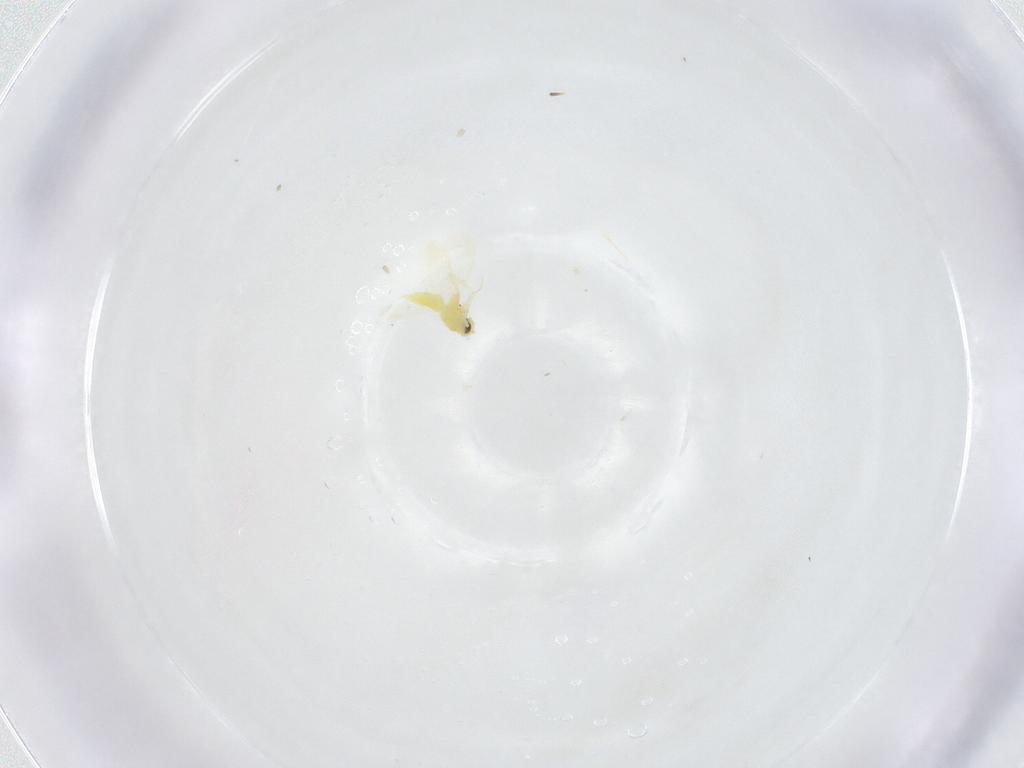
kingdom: Animalia
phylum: Arthropoda
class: Insecta
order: Hemiptera
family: Aleyrodidae
